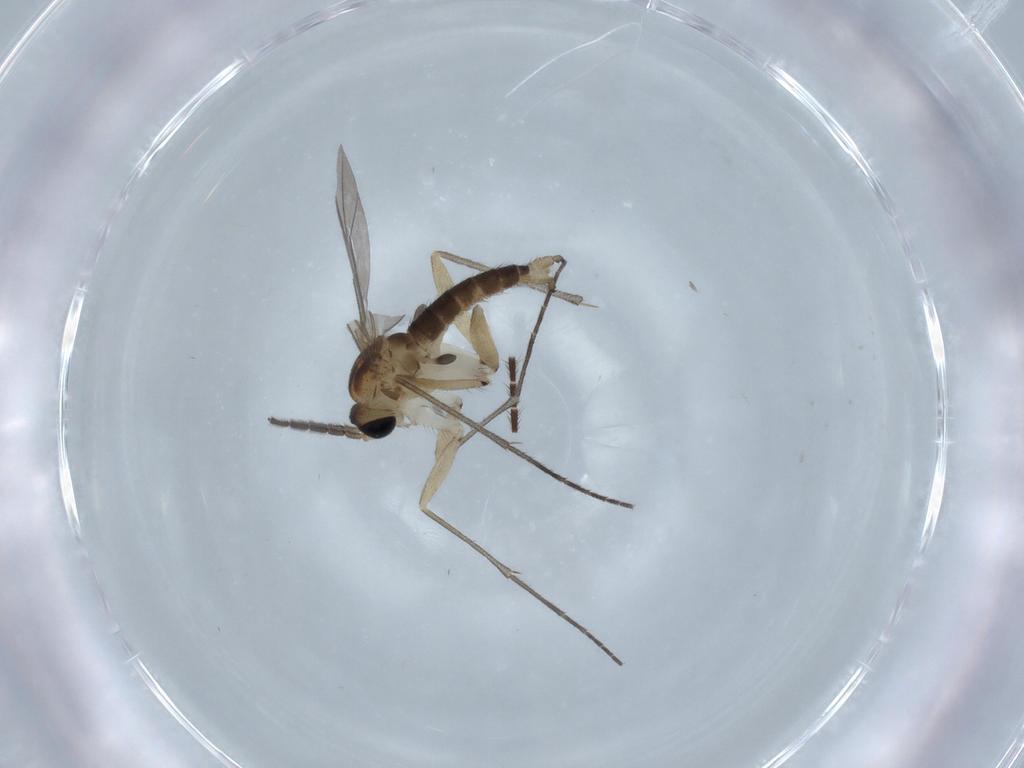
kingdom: Animalia
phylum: Arthropoda
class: Insecta
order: Diptera
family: Sciaridae
